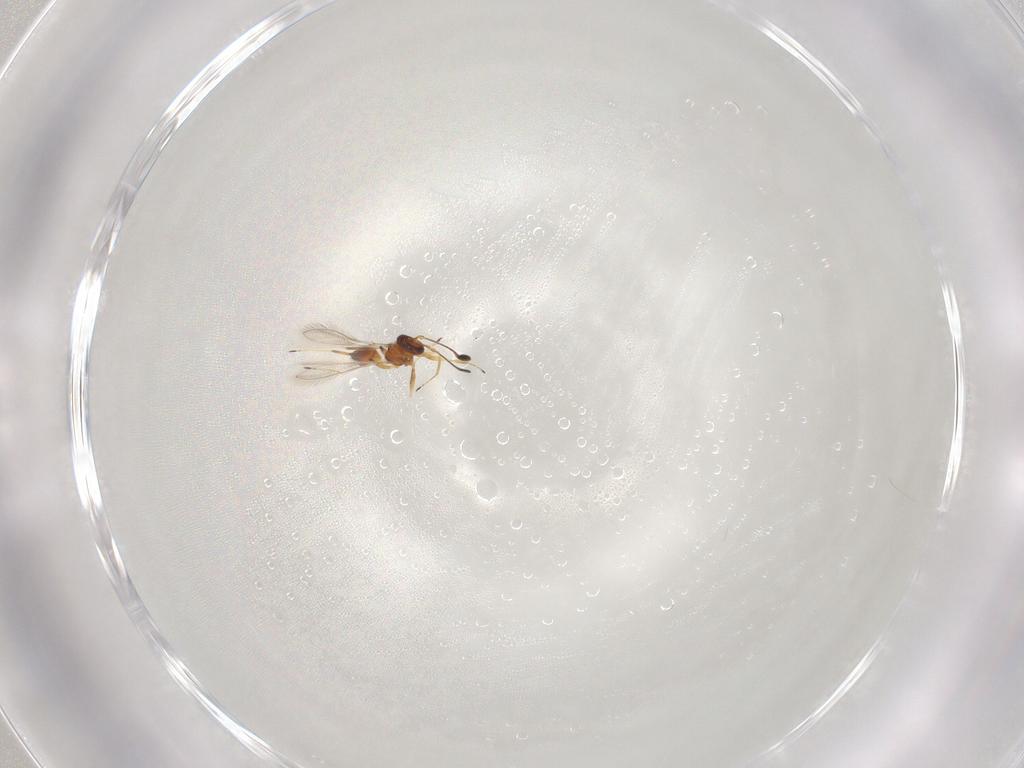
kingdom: Animalia
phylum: Arthropoda
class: Insecta
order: Hymenoptera
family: Mymaridae
